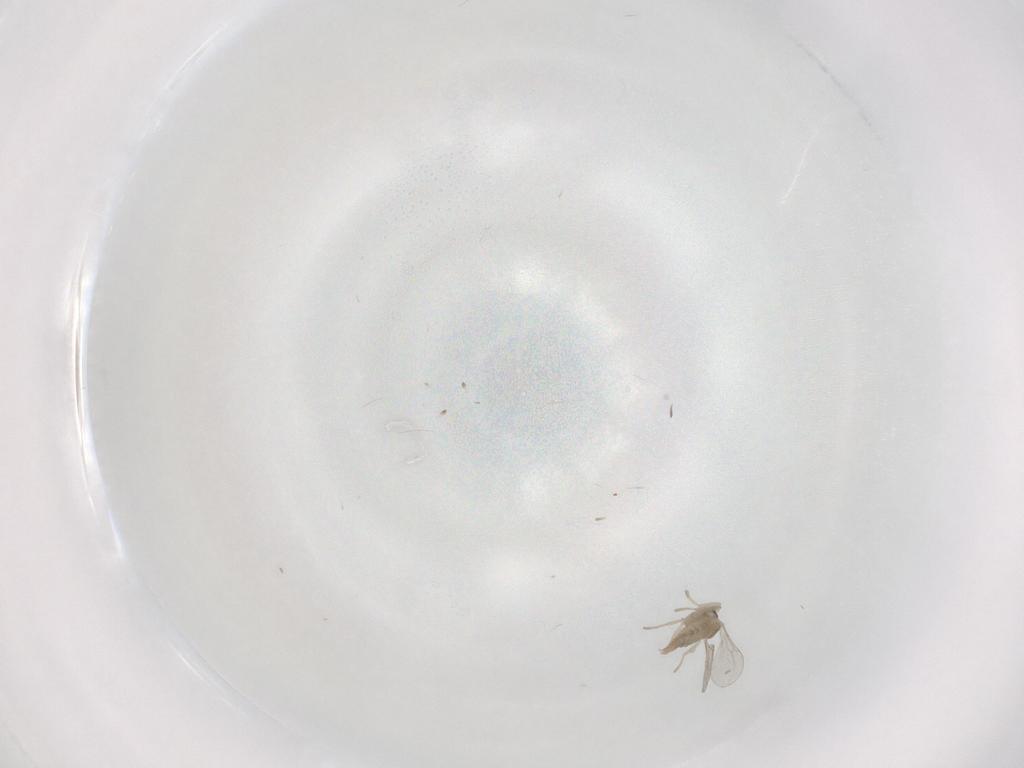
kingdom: Animalia
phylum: Arthropoda
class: Insecta
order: Diptera
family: Cecidomyiidae
